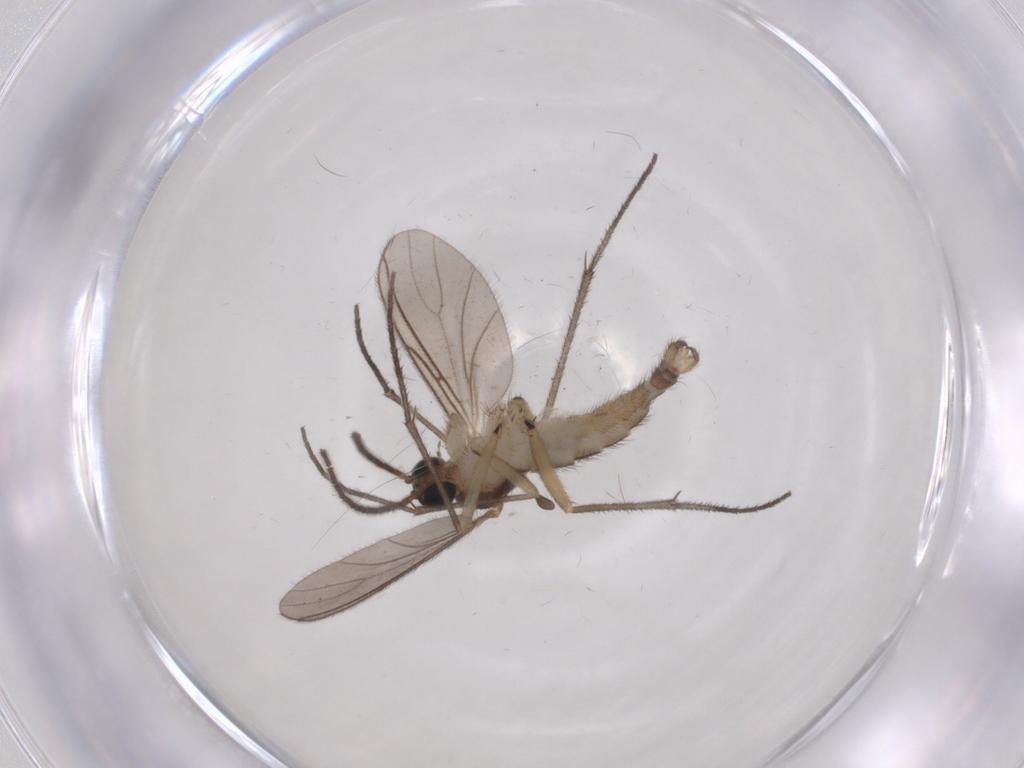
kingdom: Animalia
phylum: Arthropoda
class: Insecta
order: Diptera
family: Sciaridae
